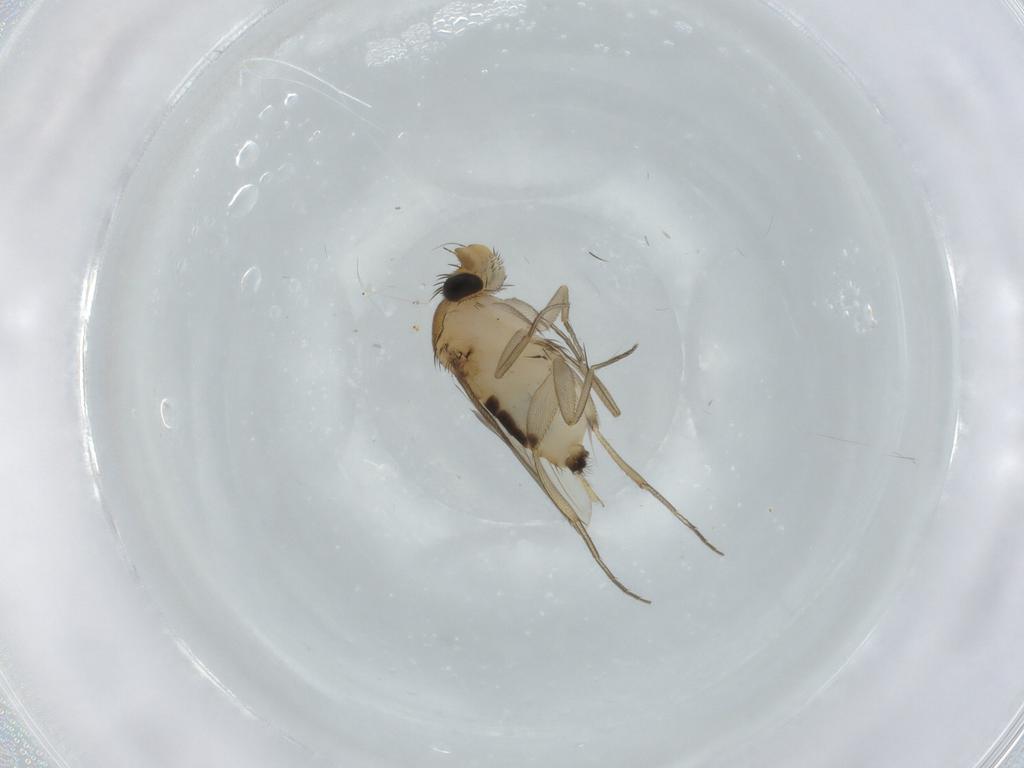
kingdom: Animalia
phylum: Arthropoda
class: Insecta
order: Diptera
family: Phoridae
